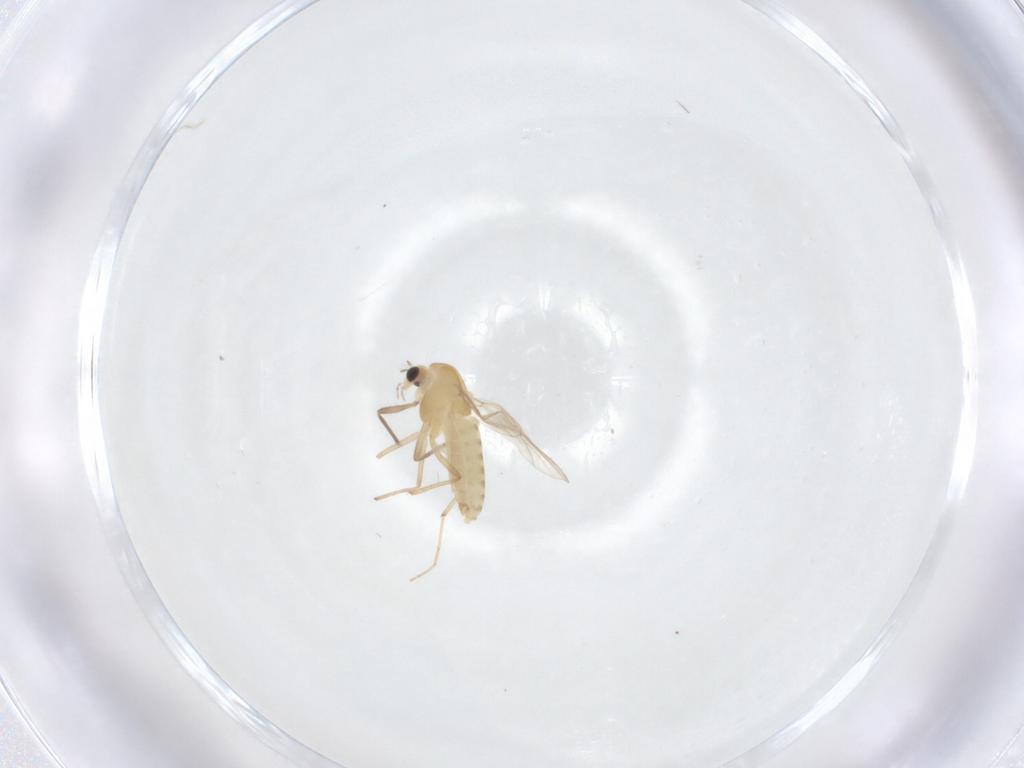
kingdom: Animalia
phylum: Arthropoda
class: Insecta
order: Diptera
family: Chironomidae
